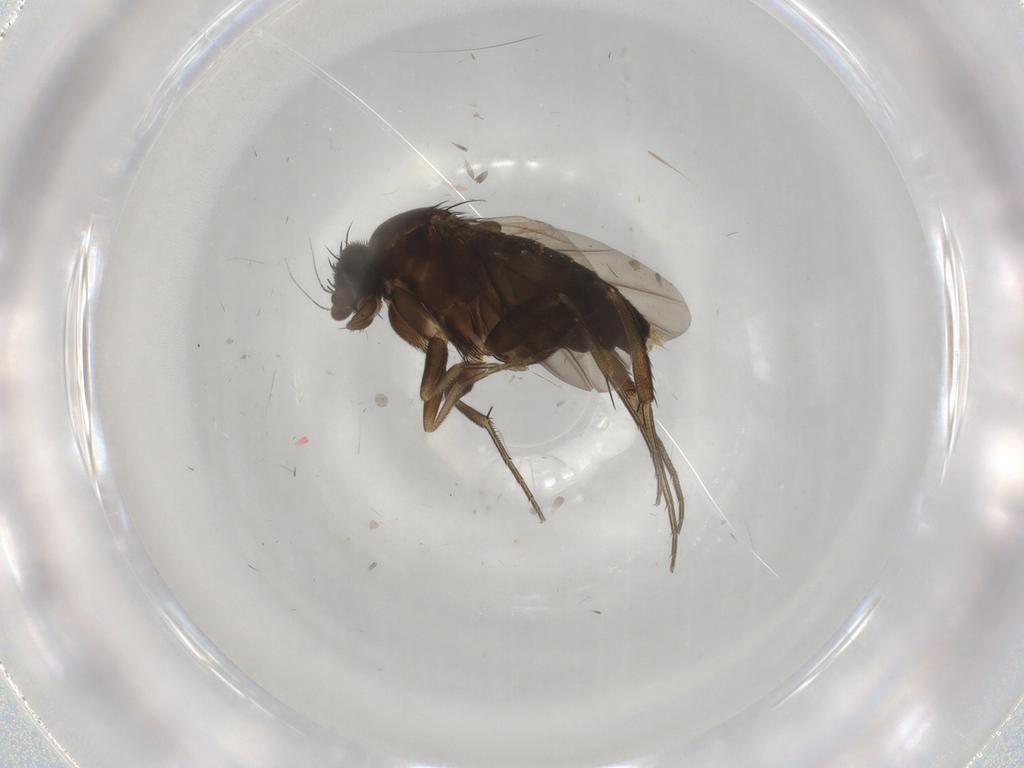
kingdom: Animalia
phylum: Arthropoda
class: Insecta
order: Diptera
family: Phoridae
